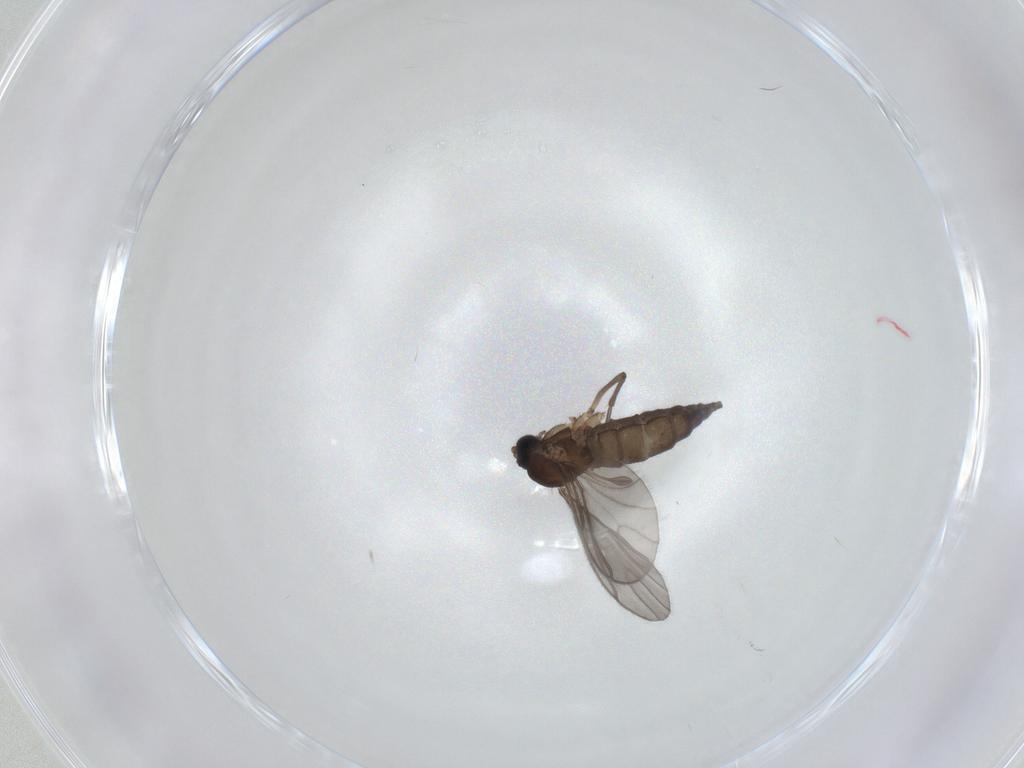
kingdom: Animalia
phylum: Arthropoda
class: Insecta
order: Diptera
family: Sciaridae
